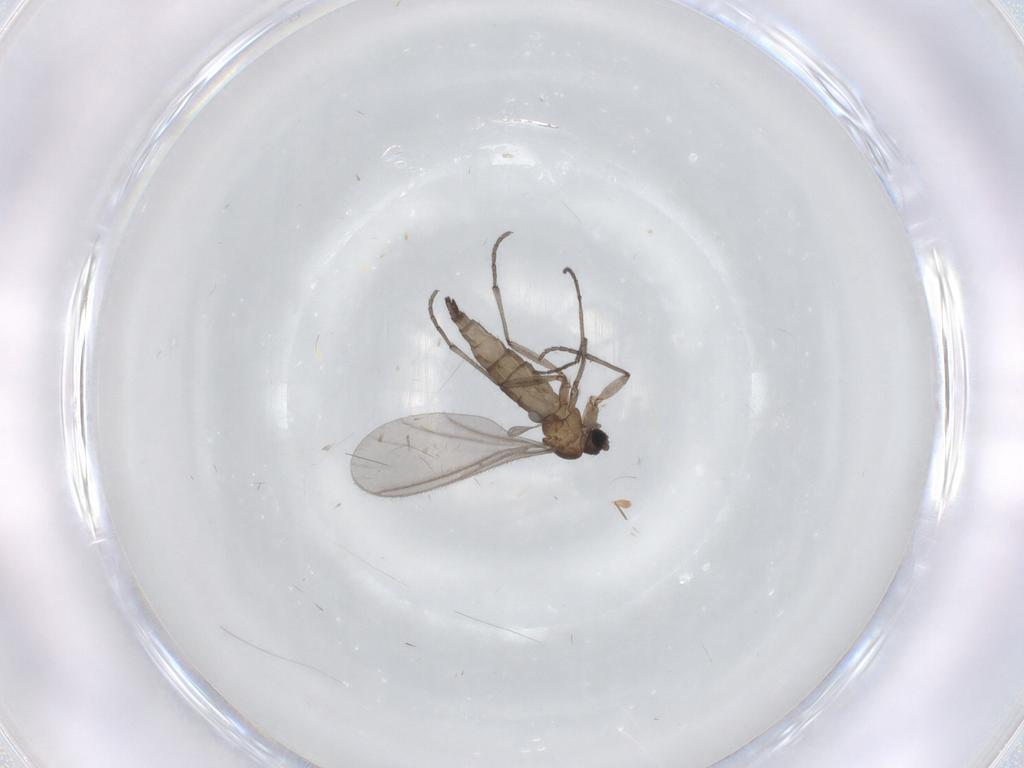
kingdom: Animalia
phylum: Arthropoda
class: Insecta
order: Diptera
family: Sciaridae
